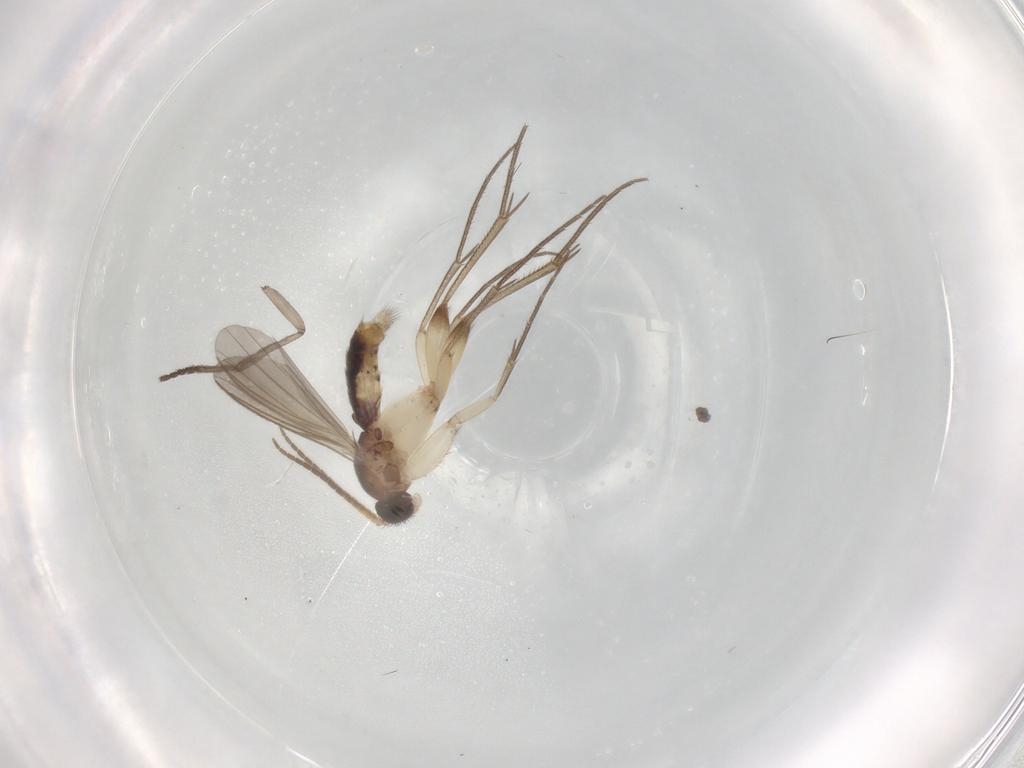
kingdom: Animalia
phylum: Arthropoda
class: Insecta
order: Diptera
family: Mycetophilidae
